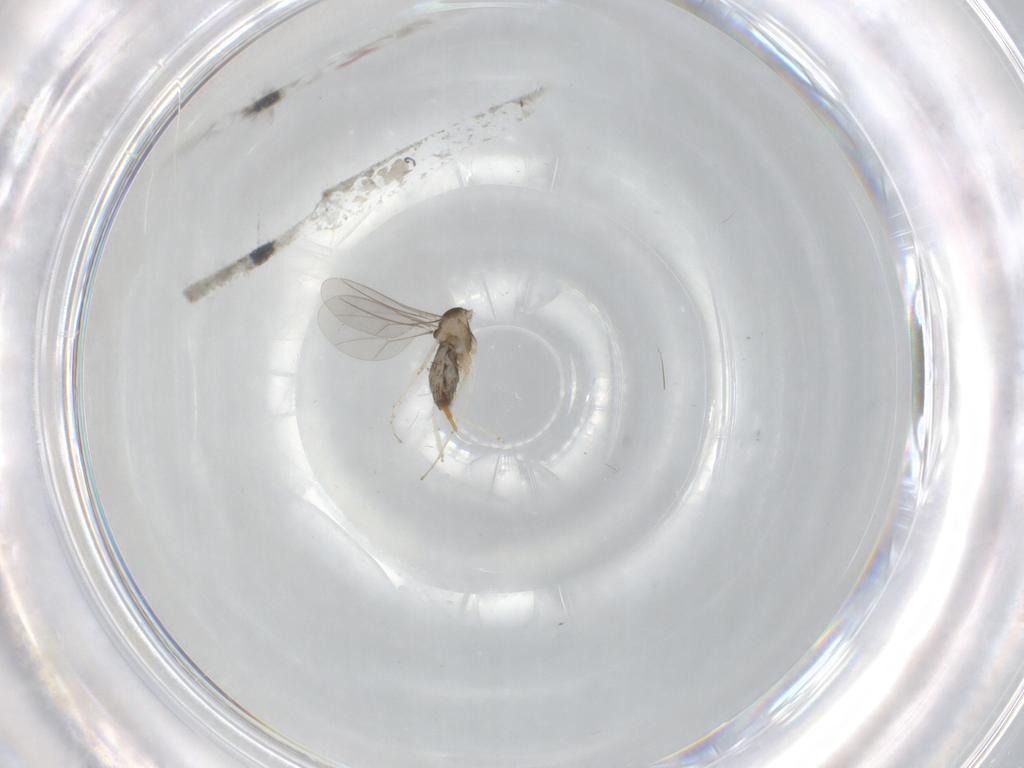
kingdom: Animalia
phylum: Arthropoda
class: Insecta
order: Diptera
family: Cecidomyiidae
